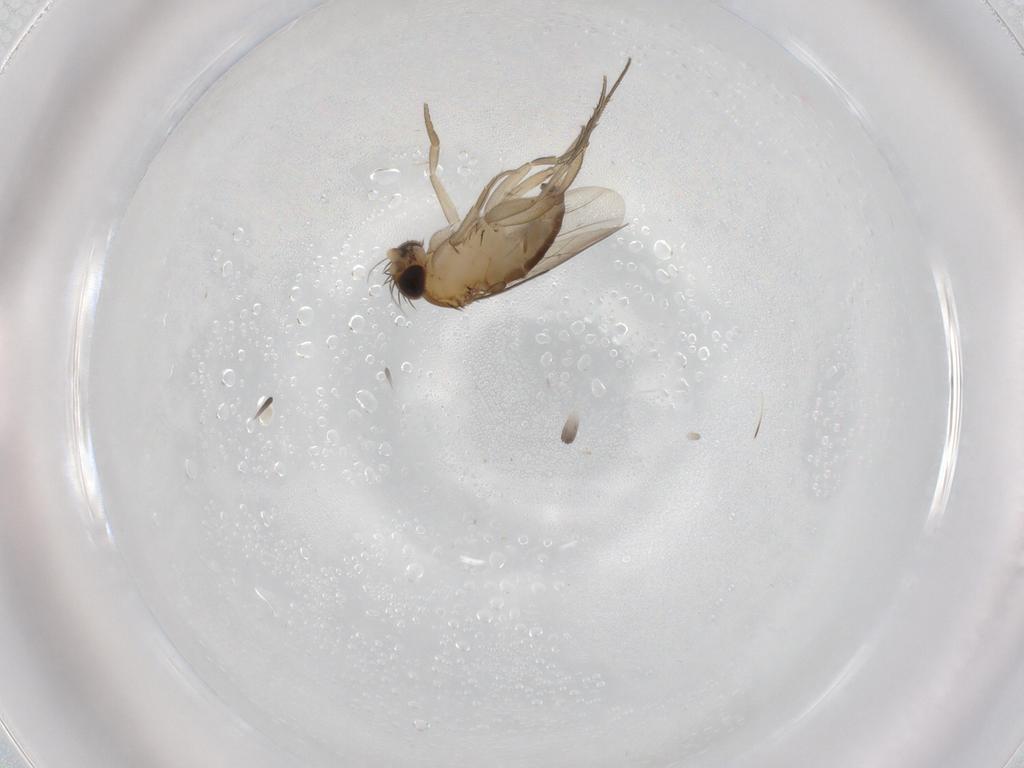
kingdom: Animalia
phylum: Arthropoda
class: Insecta
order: Diptera
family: Phoridae
